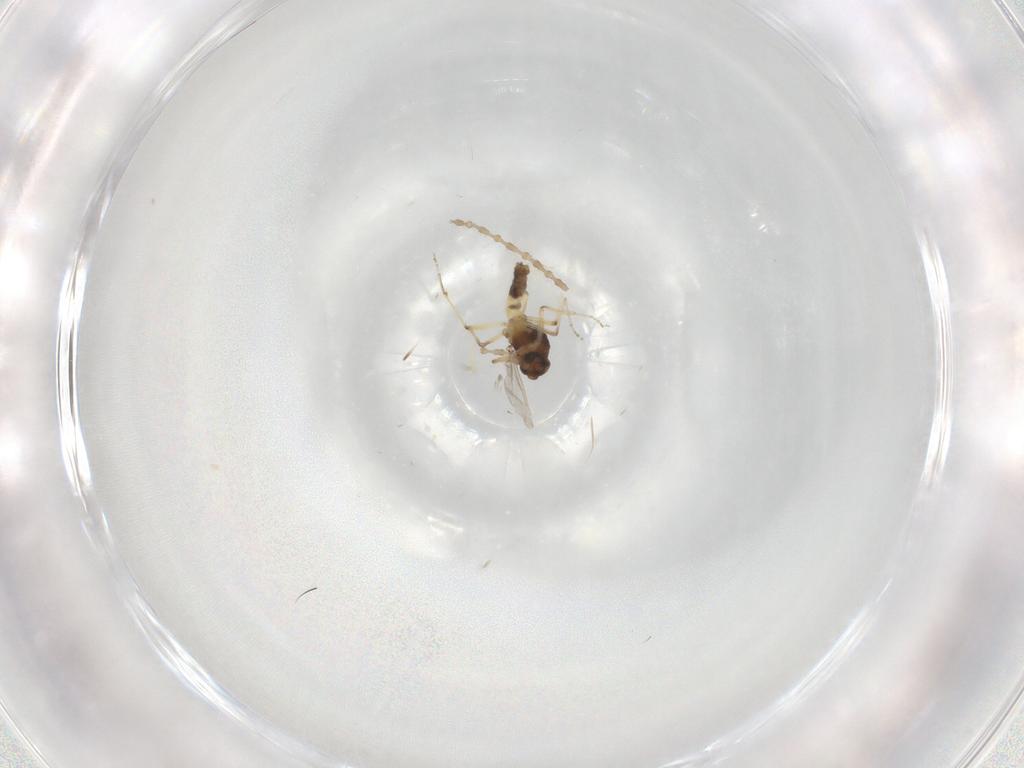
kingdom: Animalia
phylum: Arthropoda
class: Insecta
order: Diptera
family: Ceratopogonidae
